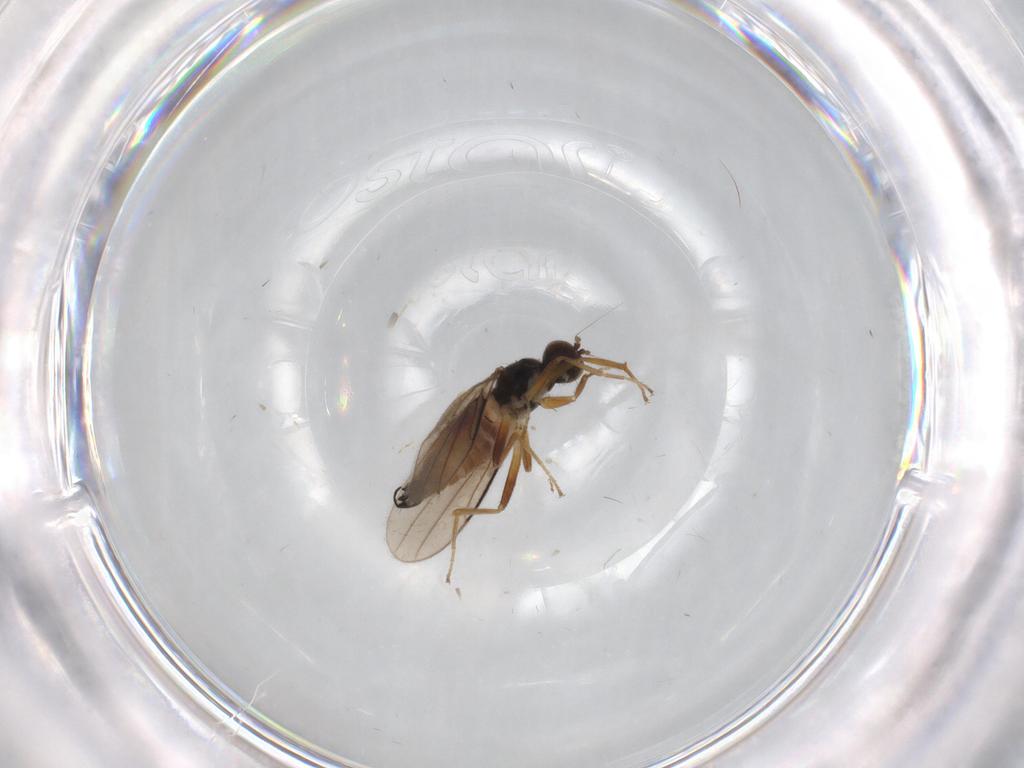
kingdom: Animalia
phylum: Arthropoda
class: Insecta
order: Diptera
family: Hybotidae
